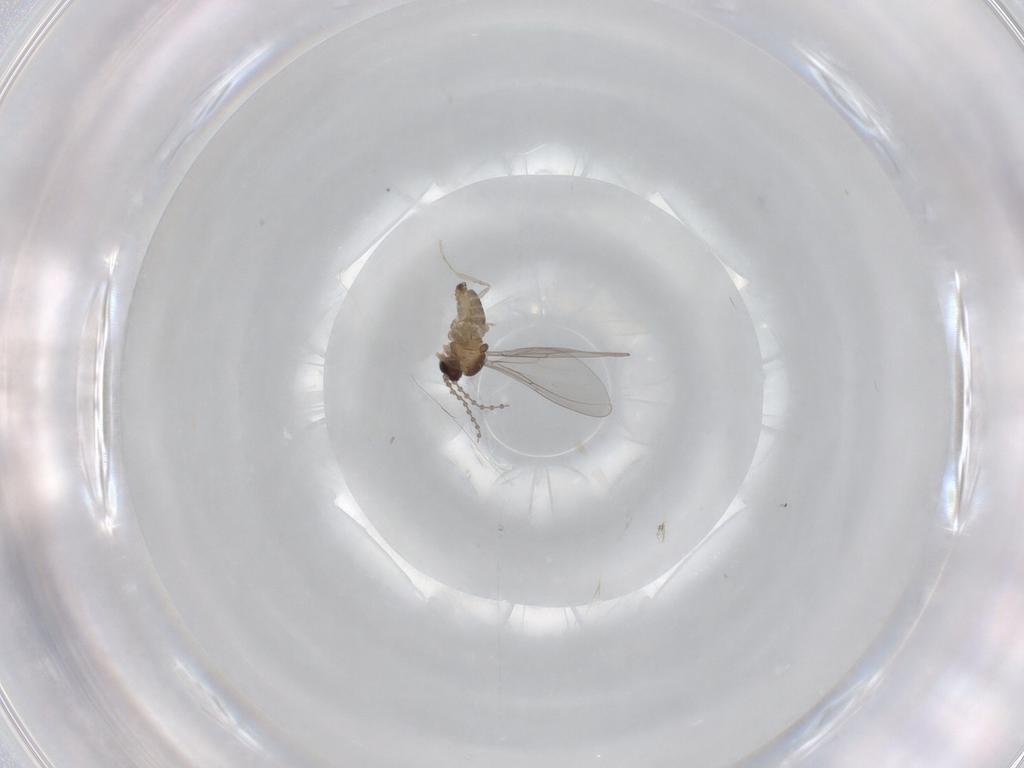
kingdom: Animalia
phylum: Arthropoda
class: Insecta
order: Diptera
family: Cecidomyiidae
